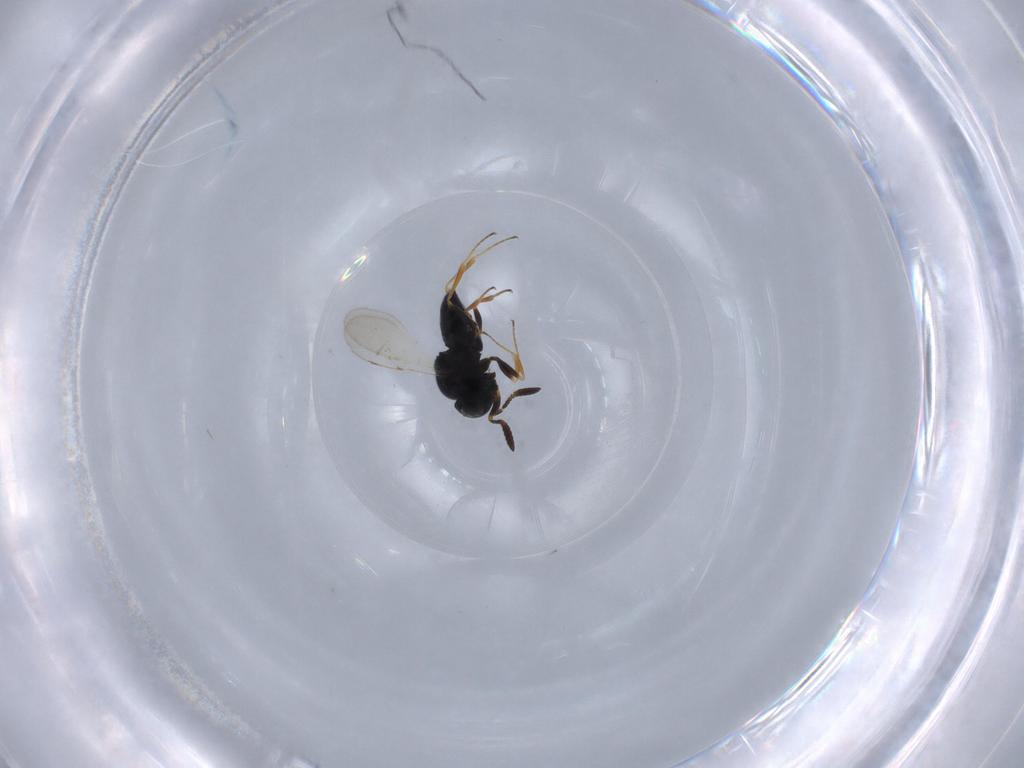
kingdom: Animalia
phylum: Arthropoda
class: Insecta
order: Hymenoptera
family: Scelionidae
